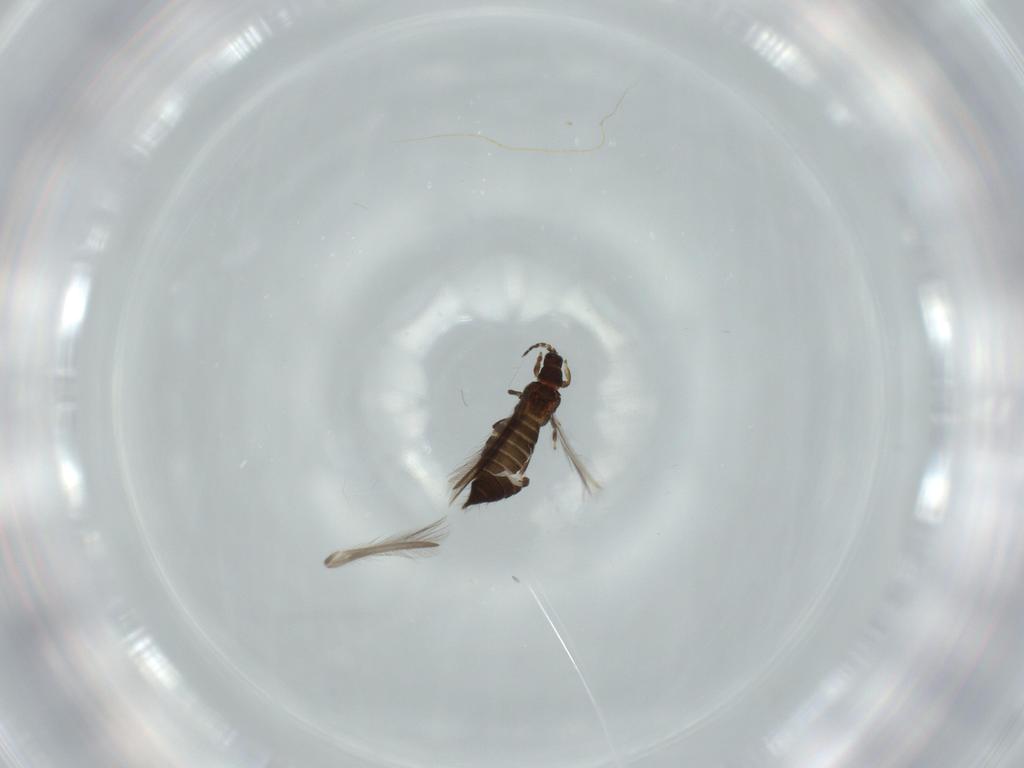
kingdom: Animalia
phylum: Arthropoda
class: Insecta
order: Thysanoptera
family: Thripidae
